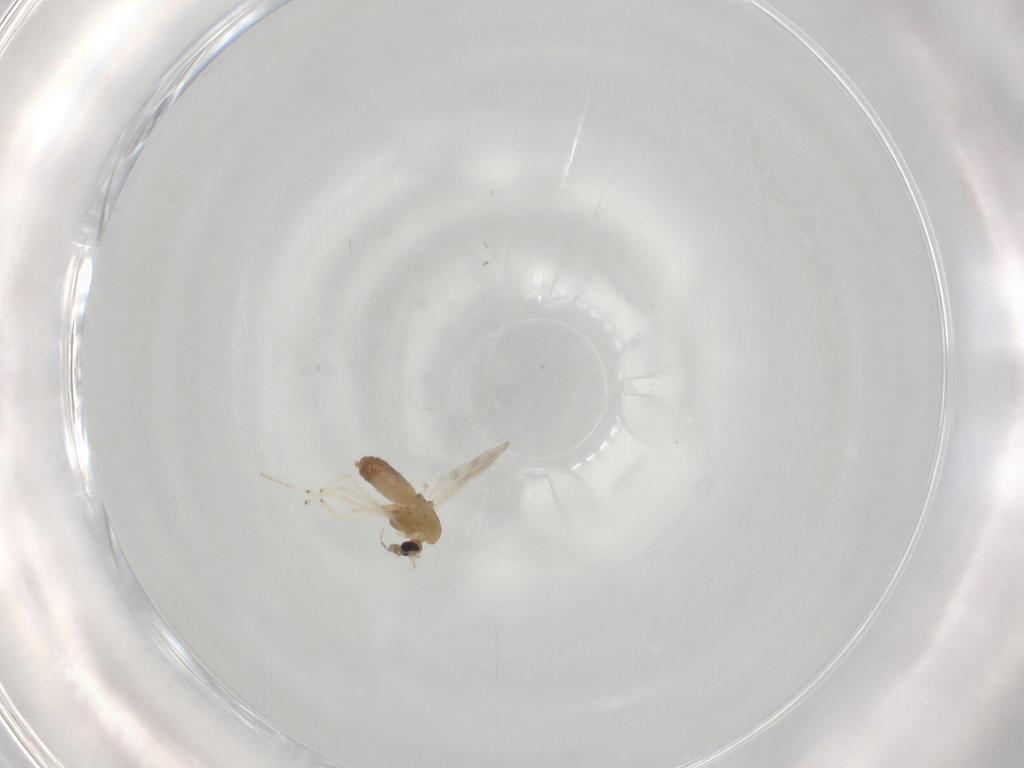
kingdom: Animalia
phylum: Arthropoda
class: Insecta
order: Diptera
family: Chironomidae
